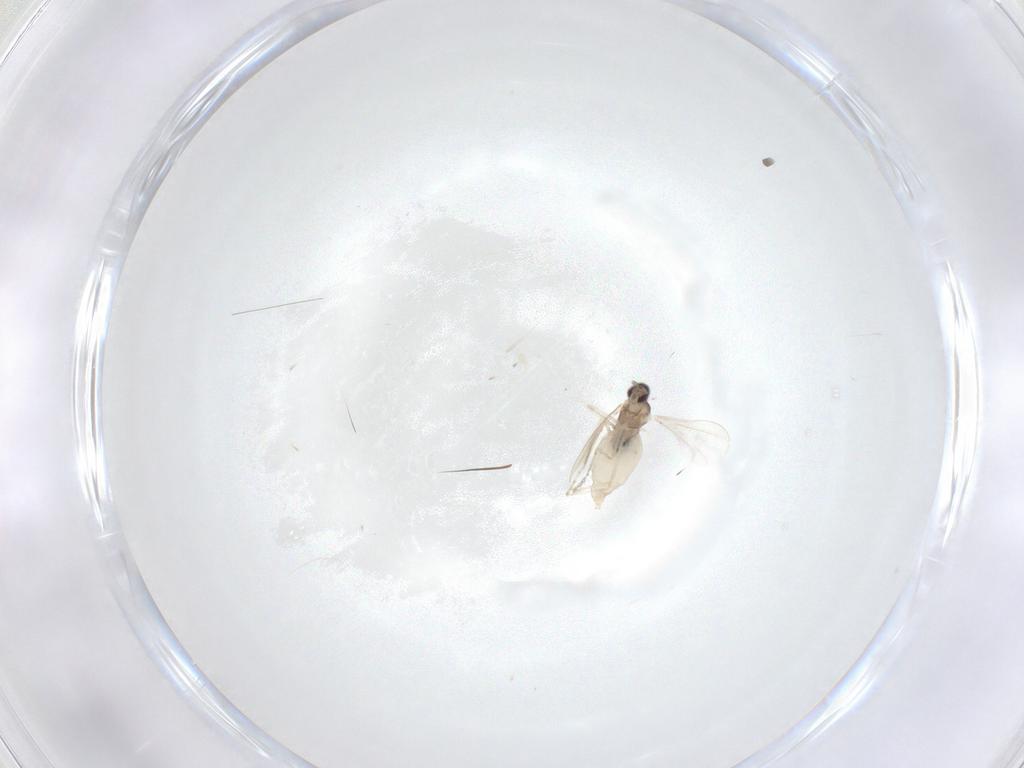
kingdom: Animalia
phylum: Arthropoda
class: Insecta
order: Diptera
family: Cecidomyiidae
